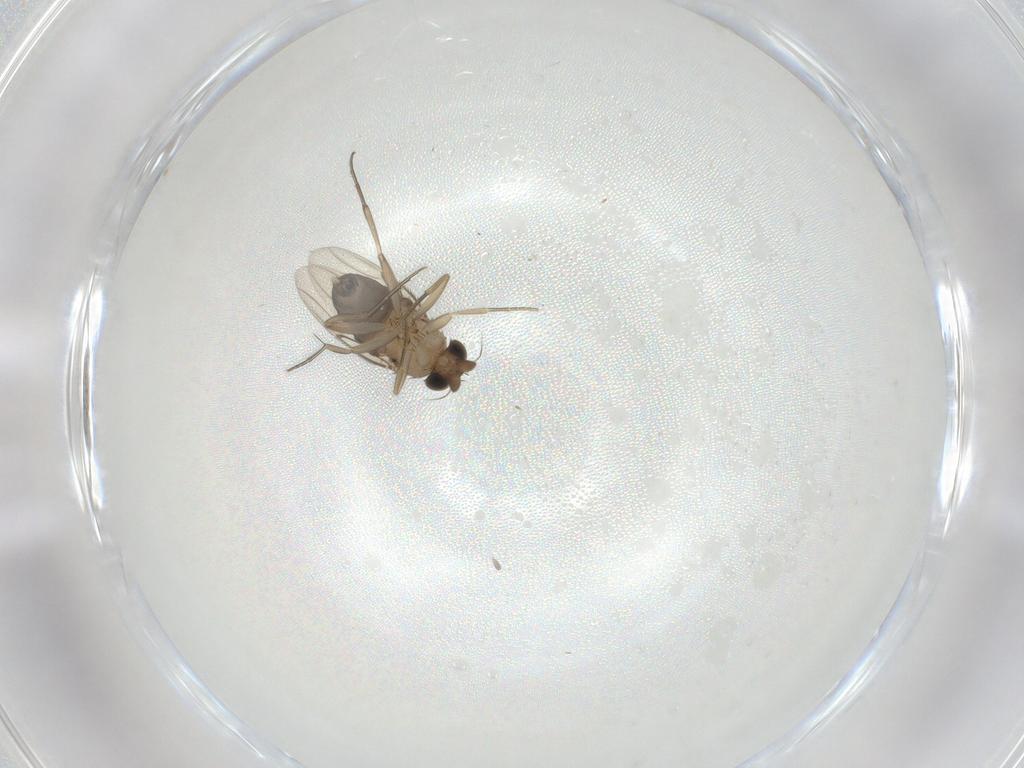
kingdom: Animalia
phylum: Arthropoda
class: Insecta
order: Diptera
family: Phoridae
